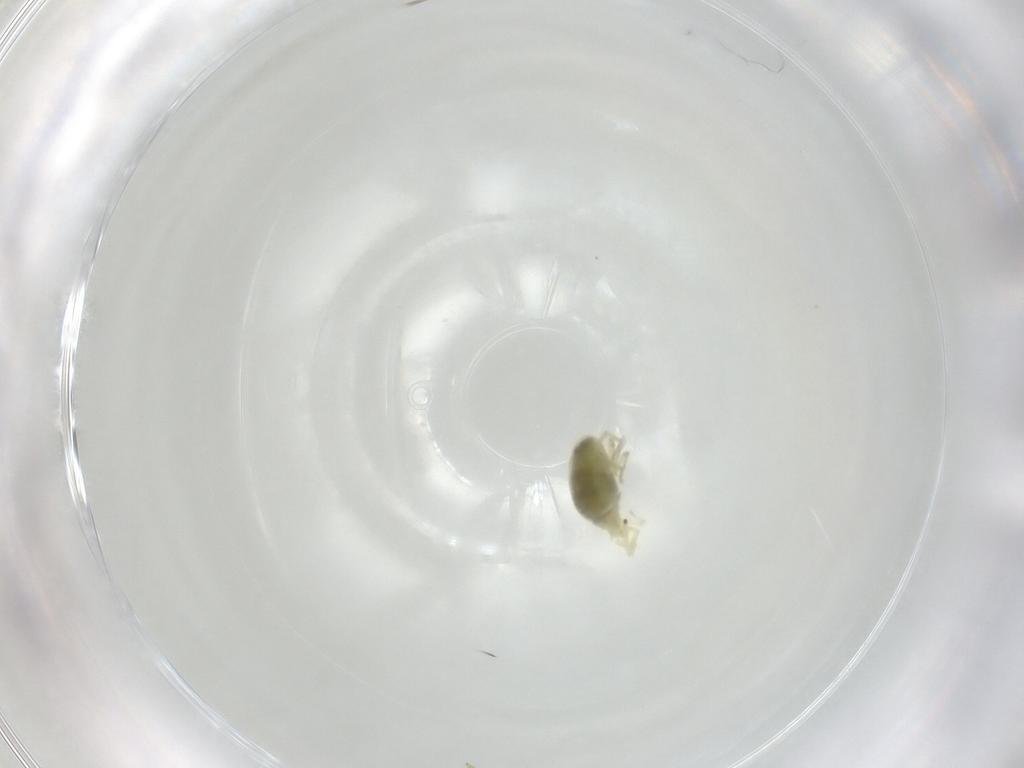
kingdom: Animalia
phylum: Arthropoda
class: Arachnida
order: Trombidiformes
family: Erythraeidae
